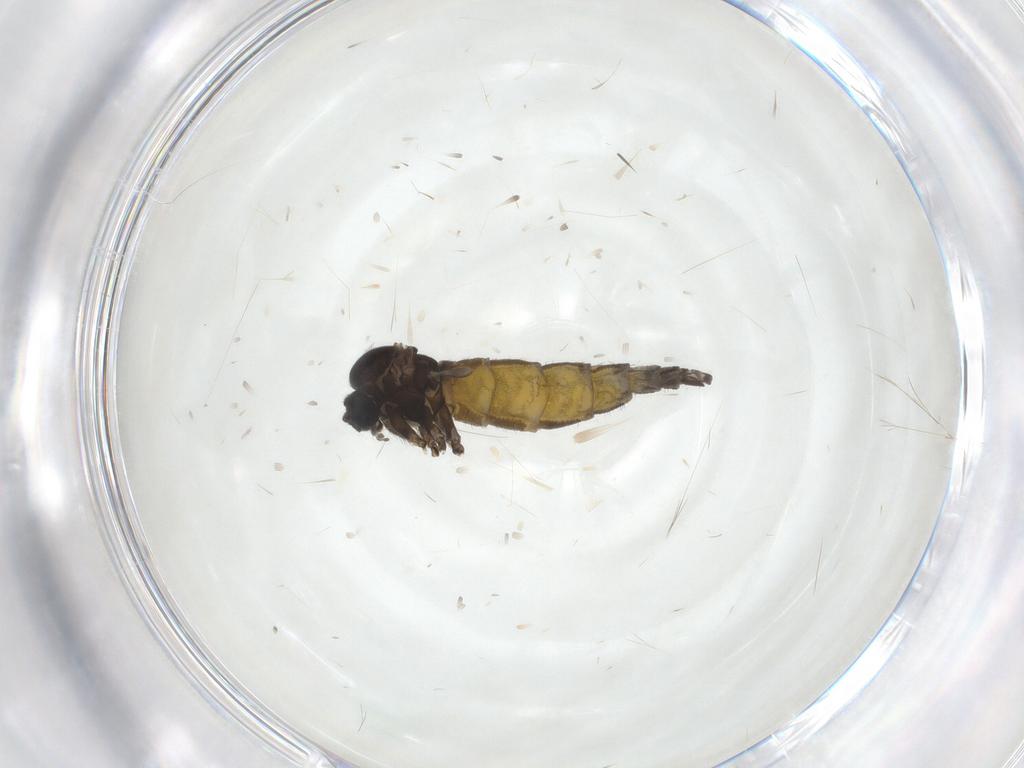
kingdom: Animalia
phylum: Arthropoda
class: Insecta
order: Diptera
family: Sciaridae
